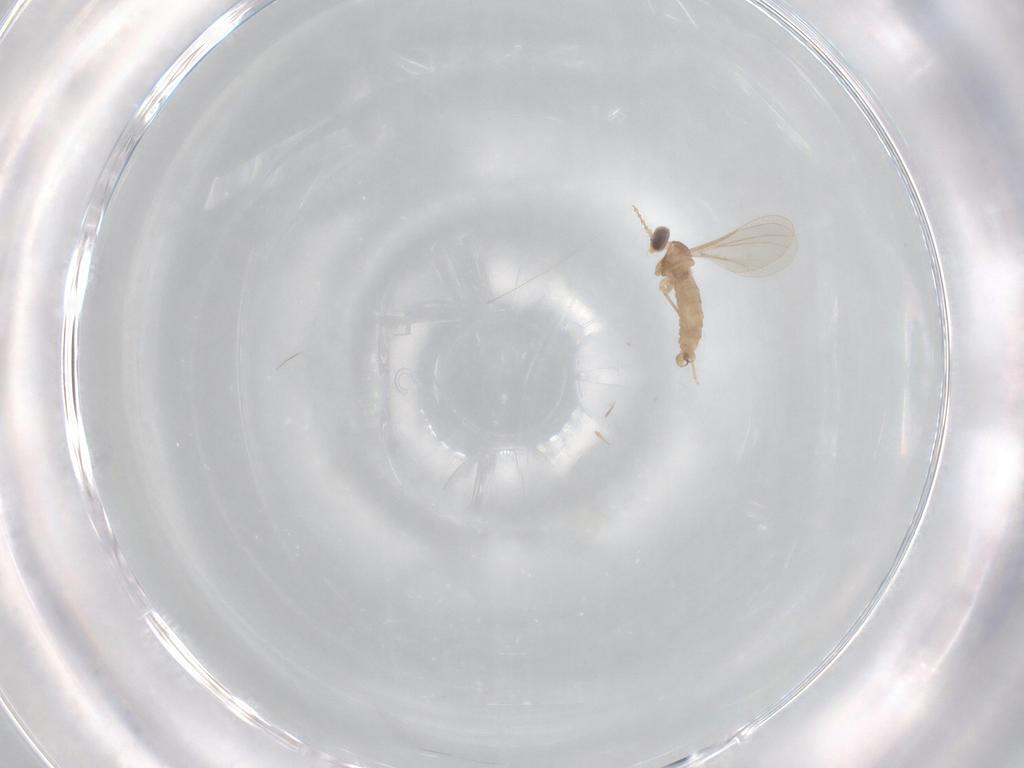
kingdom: Animalia
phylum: Arthropoda
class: Insecta
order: Diptera
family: Cecidomyiidae
